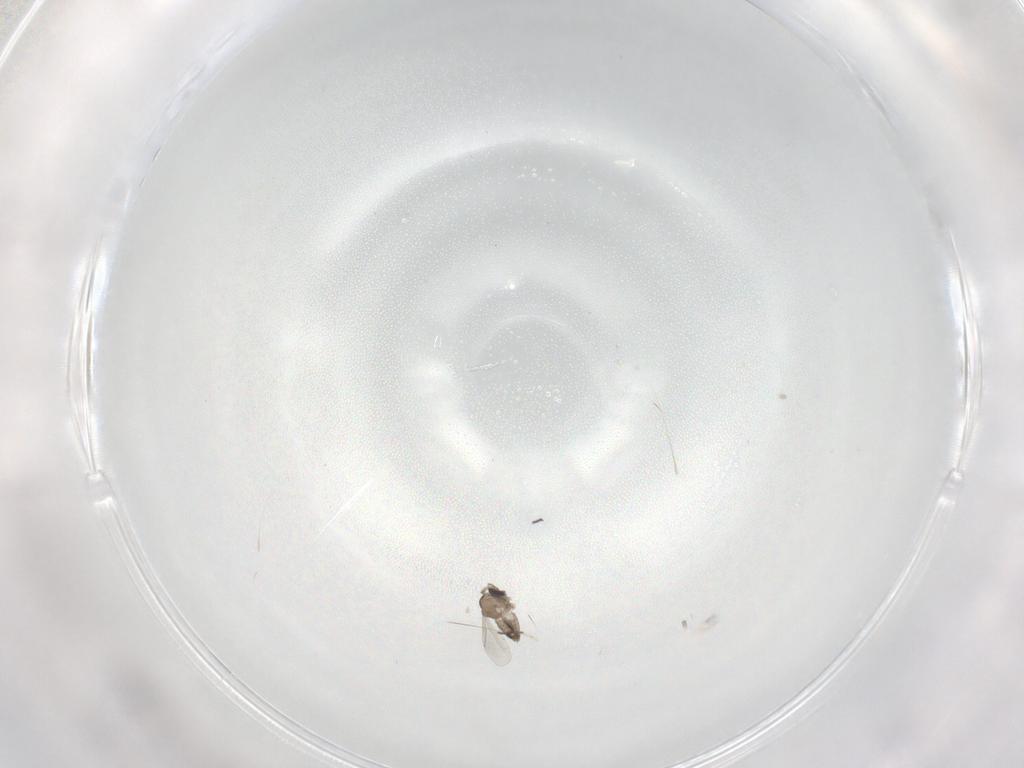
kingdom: Animalia
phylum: Arthropoda
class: Insecta
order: Diptera
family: Cecidomyiidae
